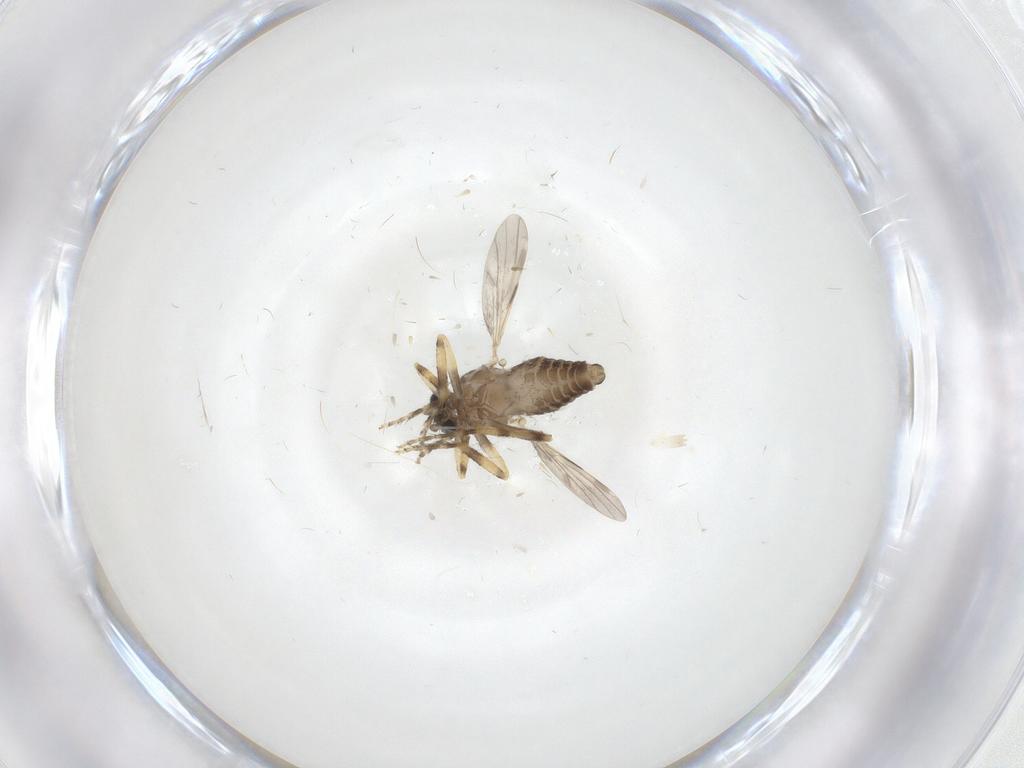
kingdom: Animalia
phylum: Arthropoda
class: Insecta
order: Diptera
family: Ceratopogonidae
